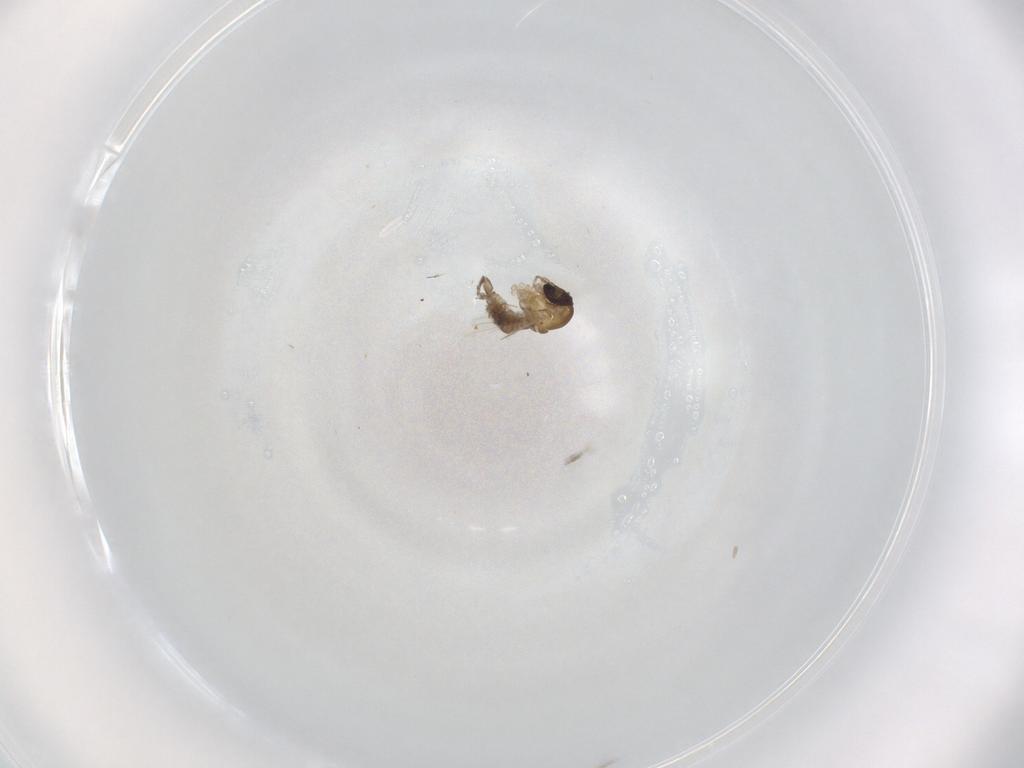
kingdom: Animalia
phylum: Arthropoda
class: Insecta
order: Diptera
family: Psychodidae
